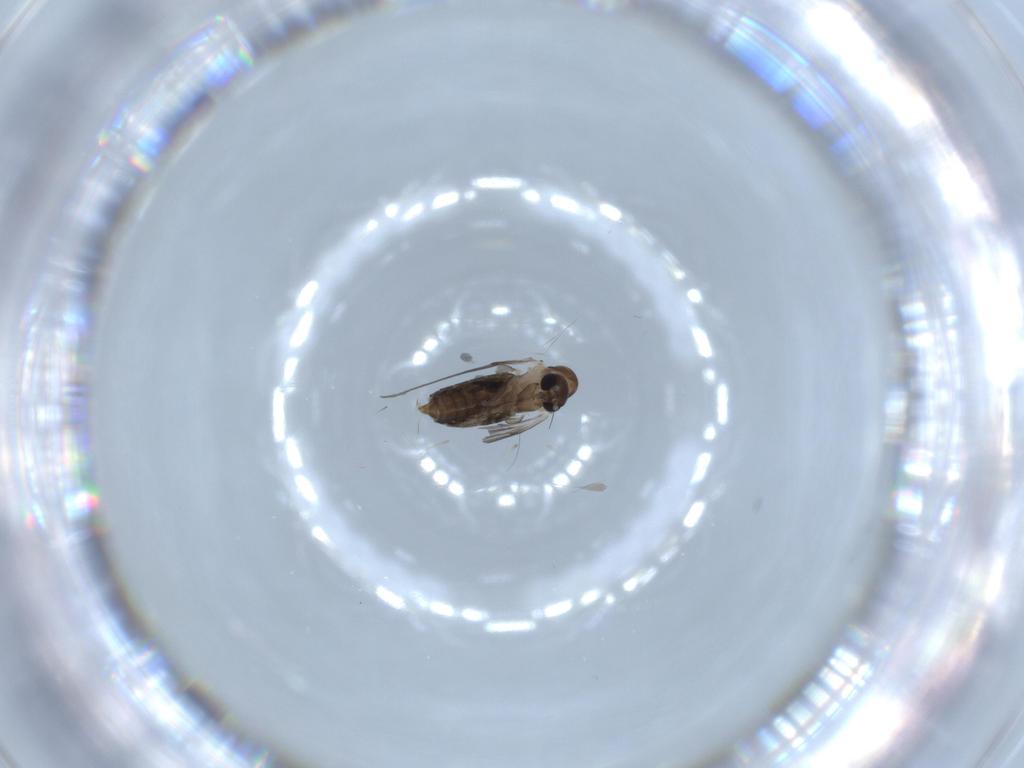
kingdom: Animalia
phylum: Arthropoda
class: Insecta
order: Diptera
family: Psychodidae
